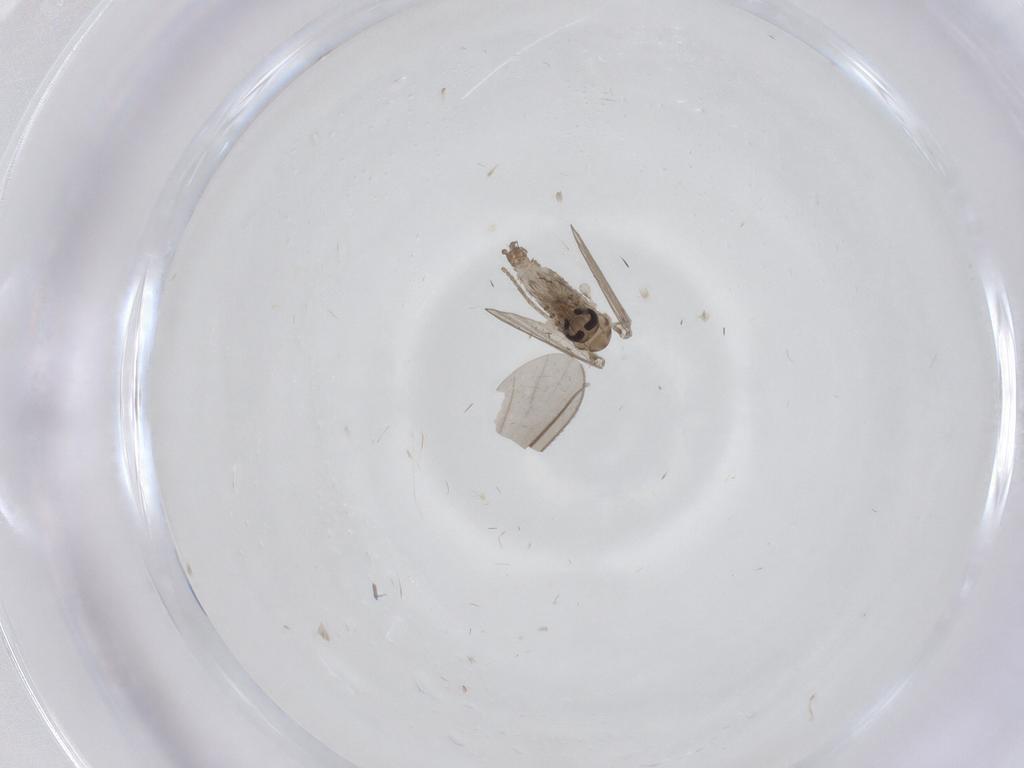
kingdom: Animalia
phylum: Arthropoda
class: Insecta
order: Diptera
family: Psychodidae
